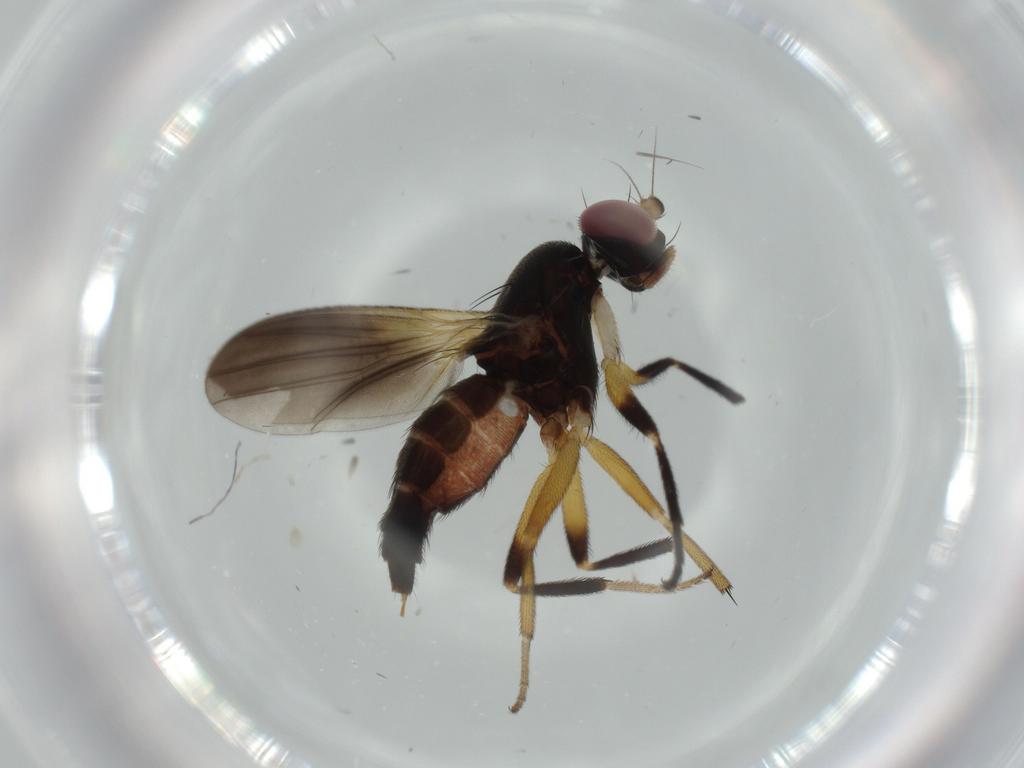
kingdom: Animalia
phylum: Arthropoda
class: Insecta
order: Diptera
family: Clusiidae
